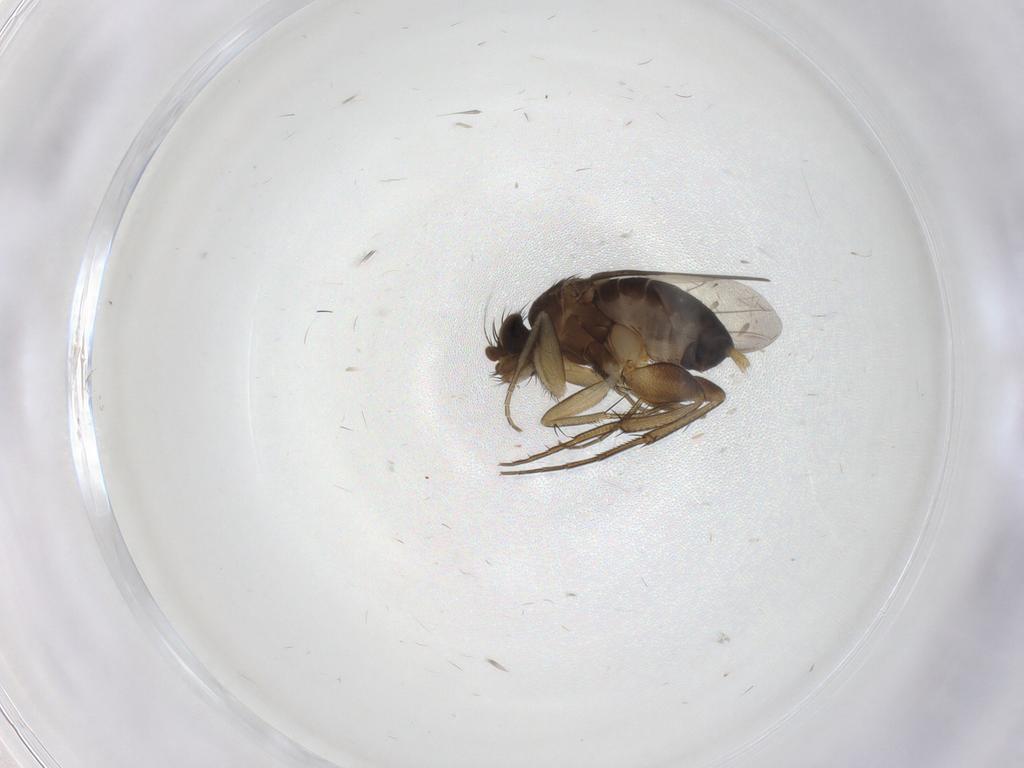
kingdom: Animalia
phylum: Arthropoda
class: Insecta
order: Diptera
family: Phoridae
